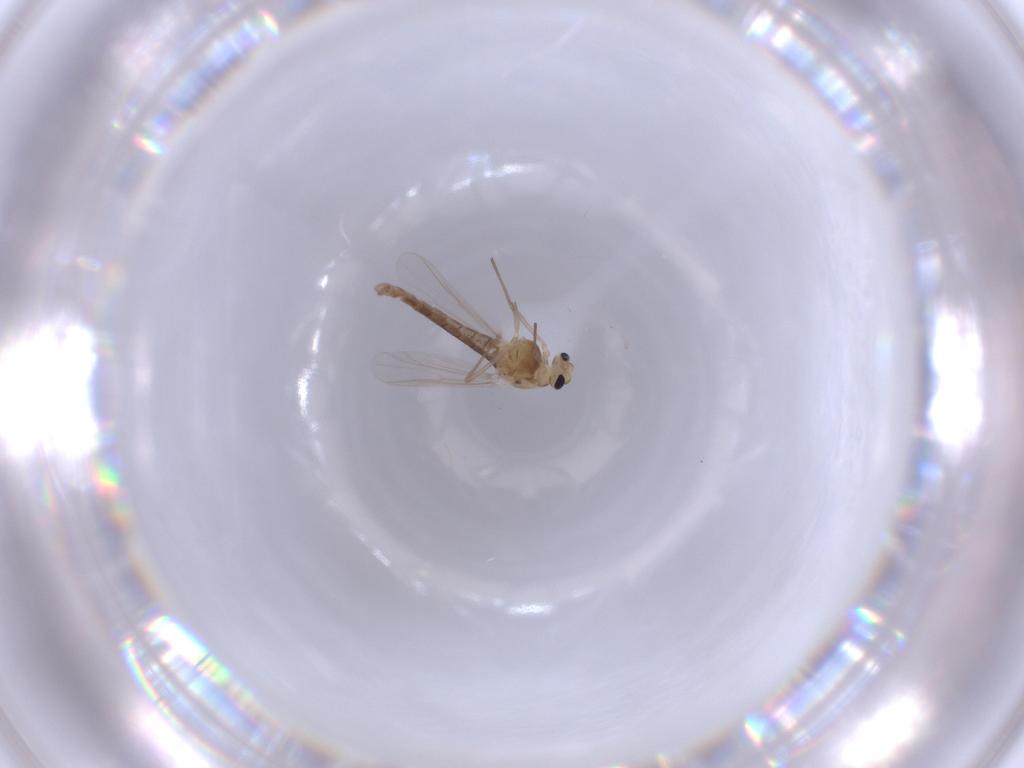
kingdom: Animalia
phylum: Arthropoda
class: Insecta
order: Diptera
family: Chironomidae
